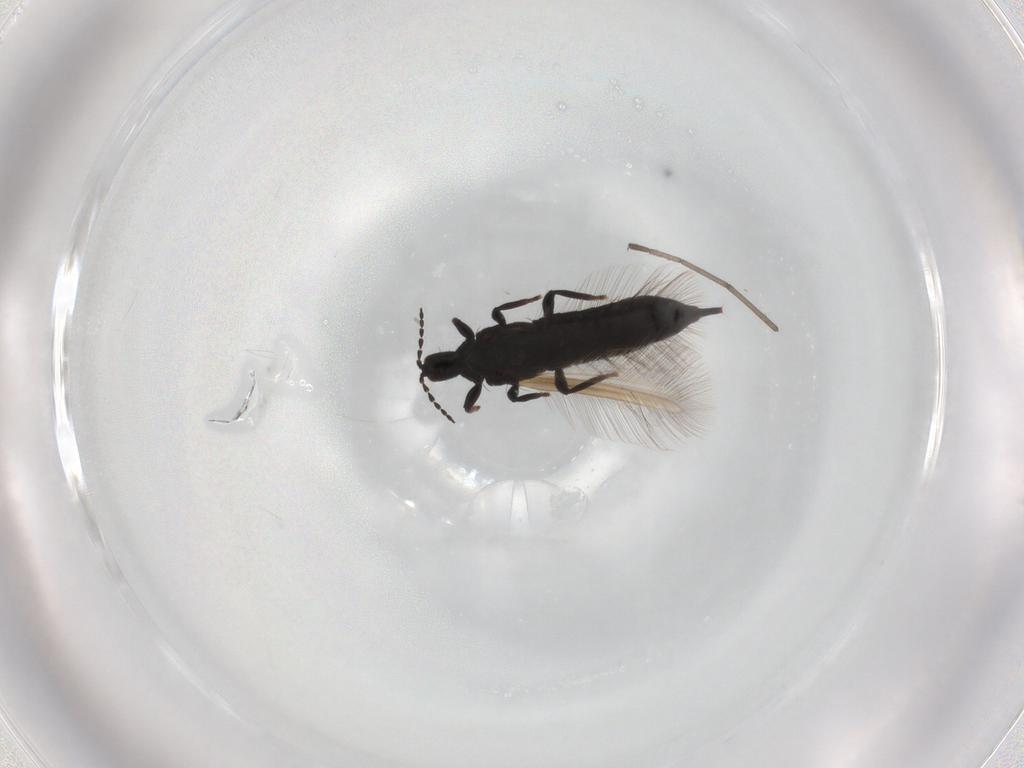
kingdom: Animalia
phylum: Arthropoda
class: Insecta
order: Thysanoptera
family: Phlaeothripidae
